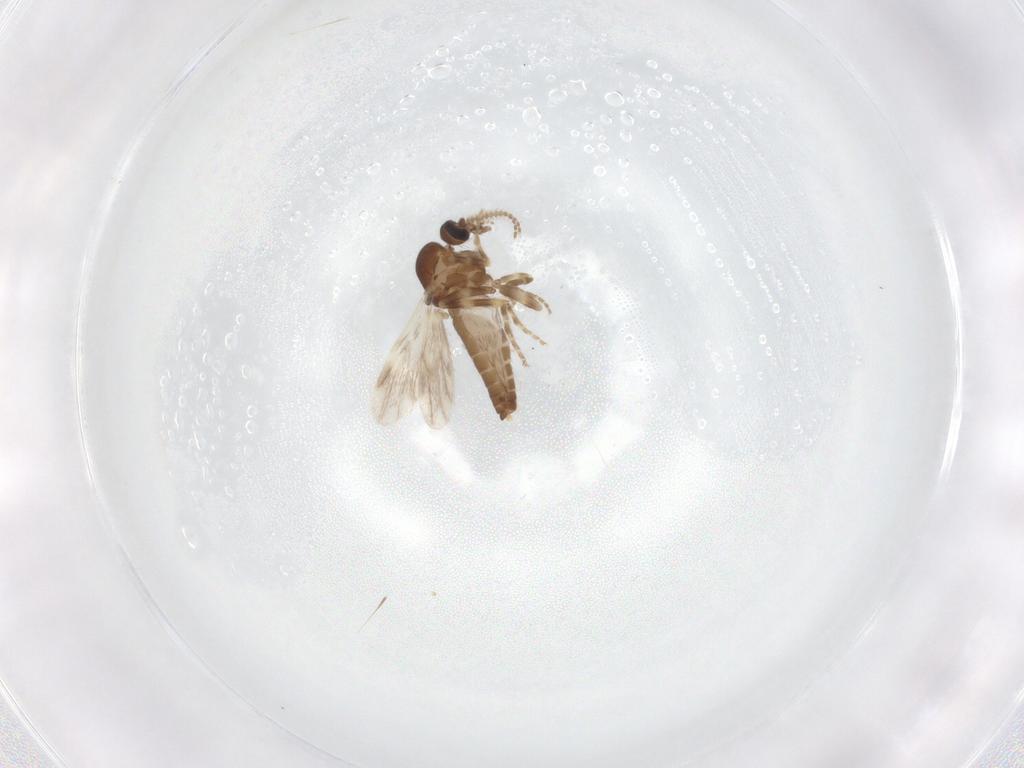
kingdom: Animalia
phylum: Arthropoda
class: Insecta
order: Diptera
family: Ceratopogonidae
